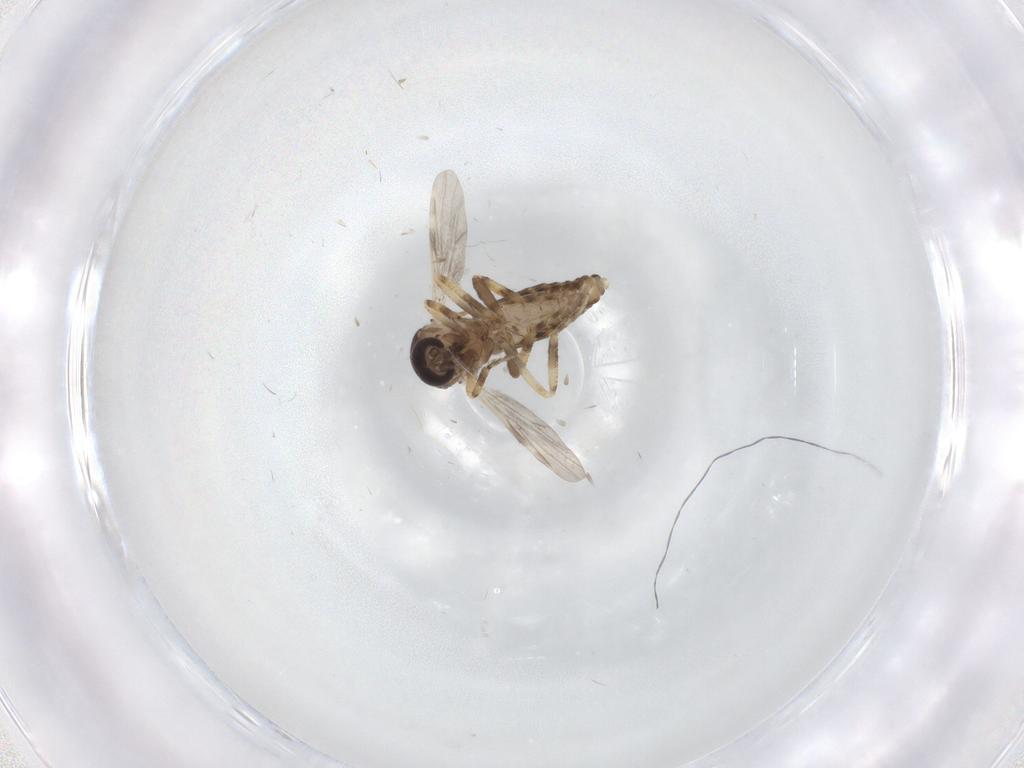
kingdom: Animalia
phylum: Arthropoda
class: Insecta
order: Diptera
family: Ceratopogonidae
